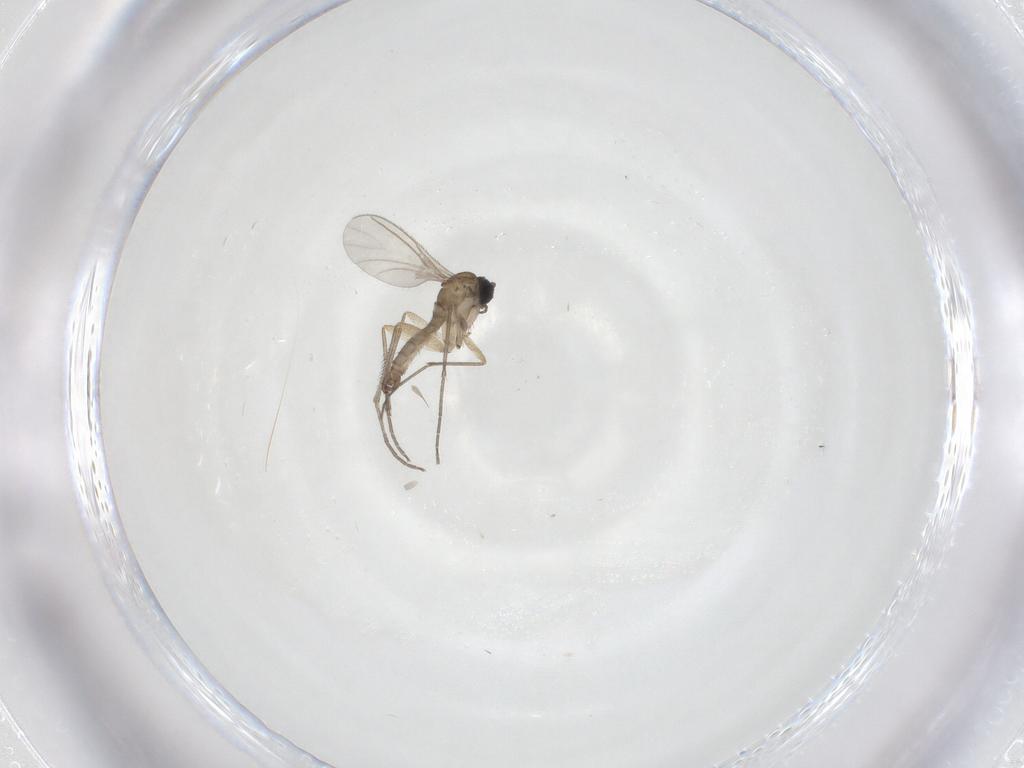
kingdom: Animalia
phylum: Arthropoda
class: Insecta
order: Diptera
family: Sciaridae
